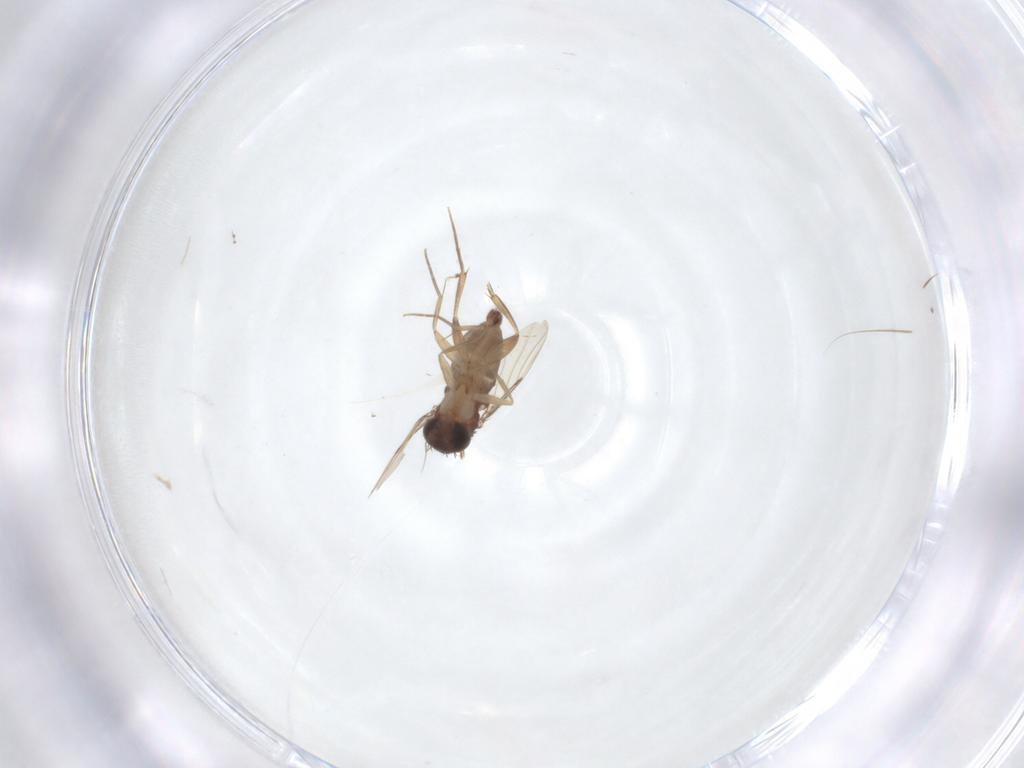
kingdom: Animalia
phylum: Arthropoda
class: Insecta
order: Diptera
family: Phoridae
